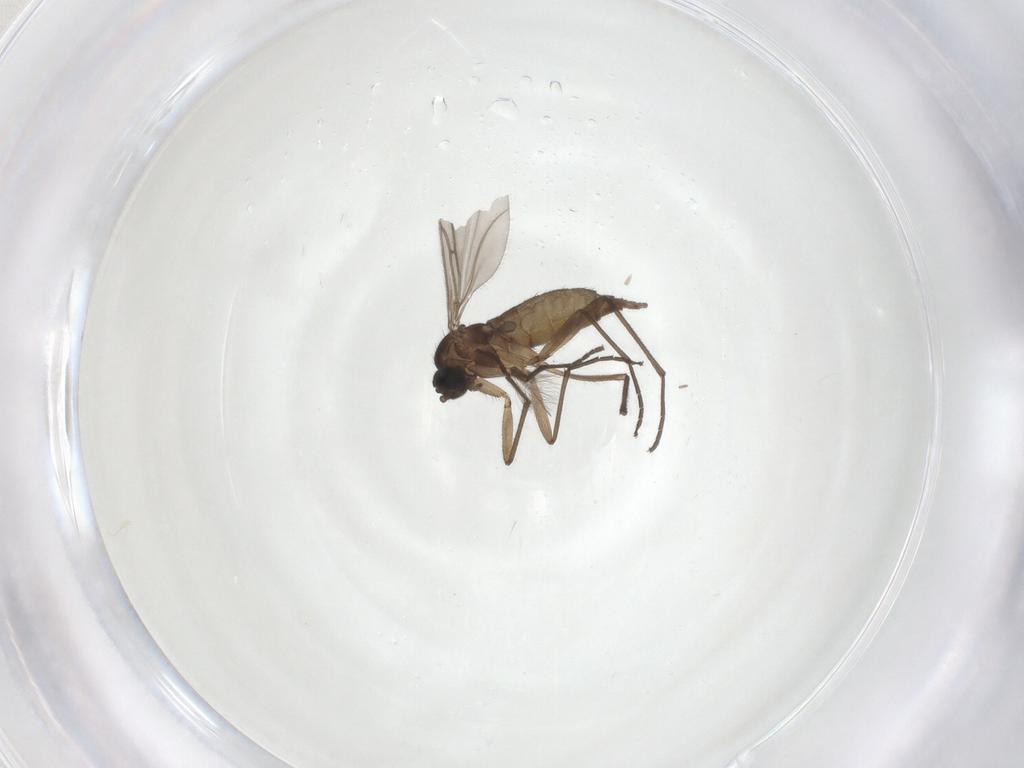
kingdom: Animalia
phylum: Arthropoda
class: Insecta
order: Diptera
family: Chironomidae
